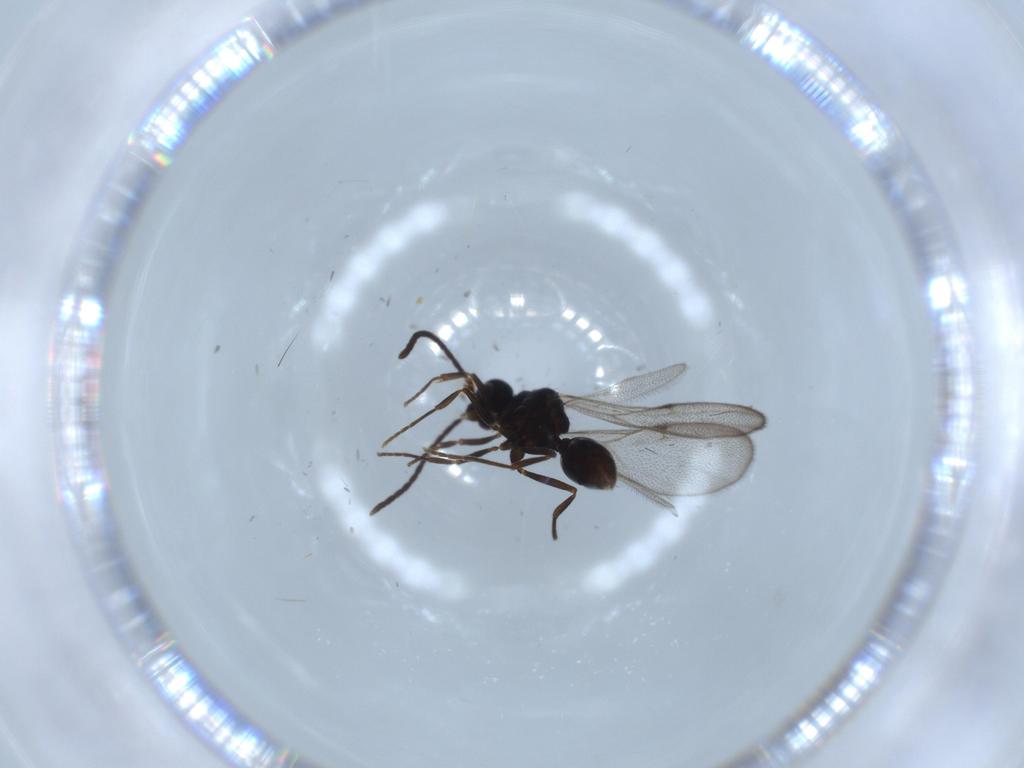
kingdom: Animalia
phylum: Arthropoda
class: Insecta
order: Hymenoptera
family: Formicidae
